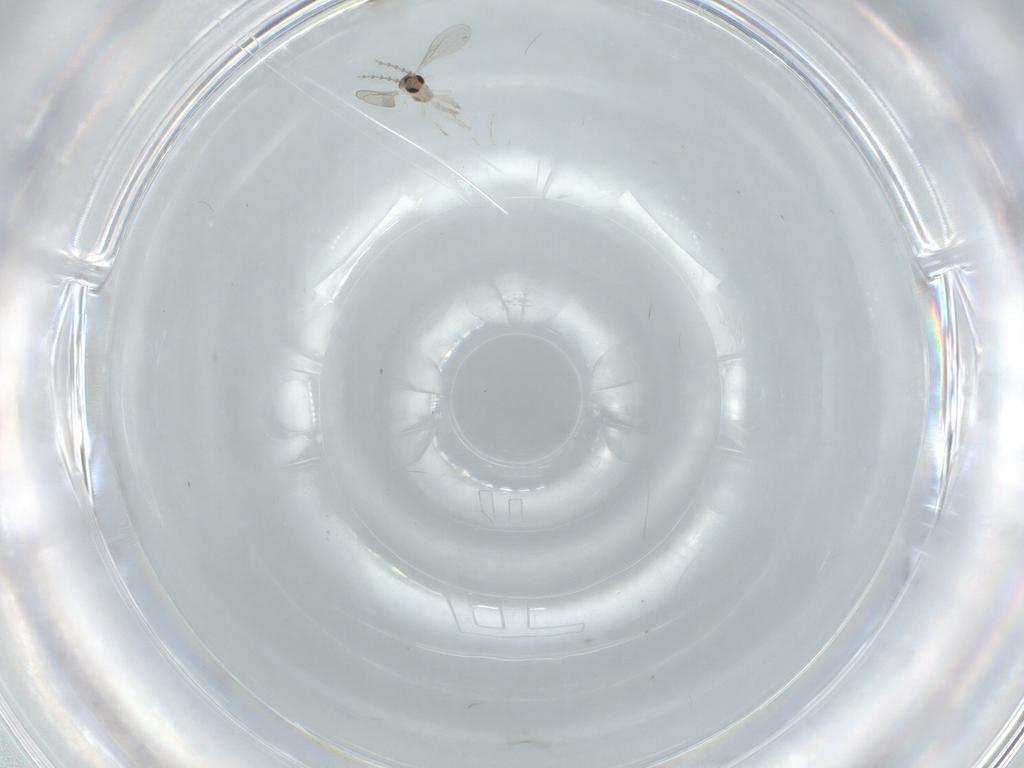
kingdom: Animalia
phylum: Arthropoda
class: Insecta
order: Diptera
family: Cecidomyiidae
